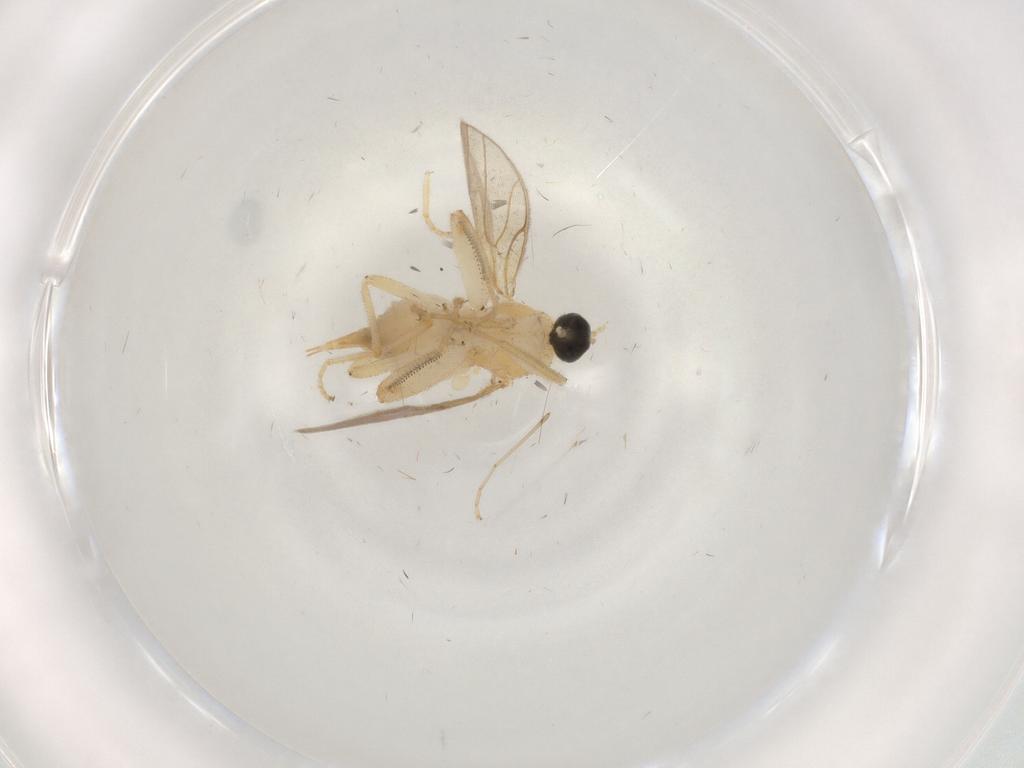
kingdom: Animalia
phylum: Arthropoda
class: Insecta
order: Diptera
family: Cecidomyiidae
